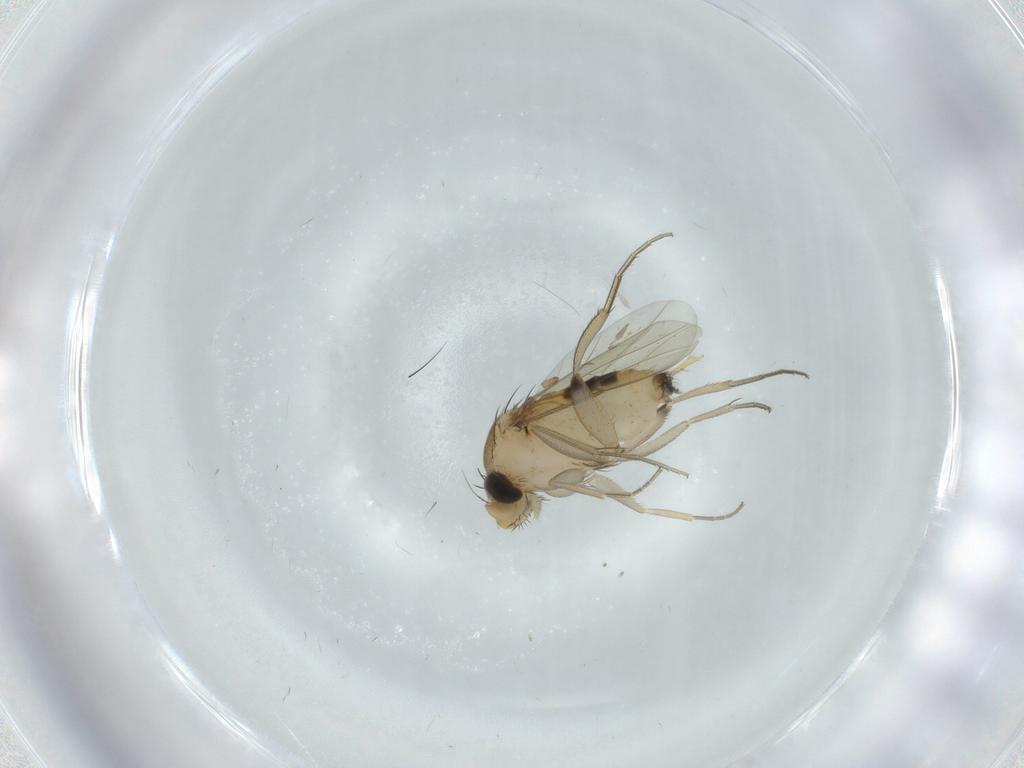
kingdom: Animalia
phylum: Arthropoda
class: Insecta
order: Diptera
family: Phoridae
